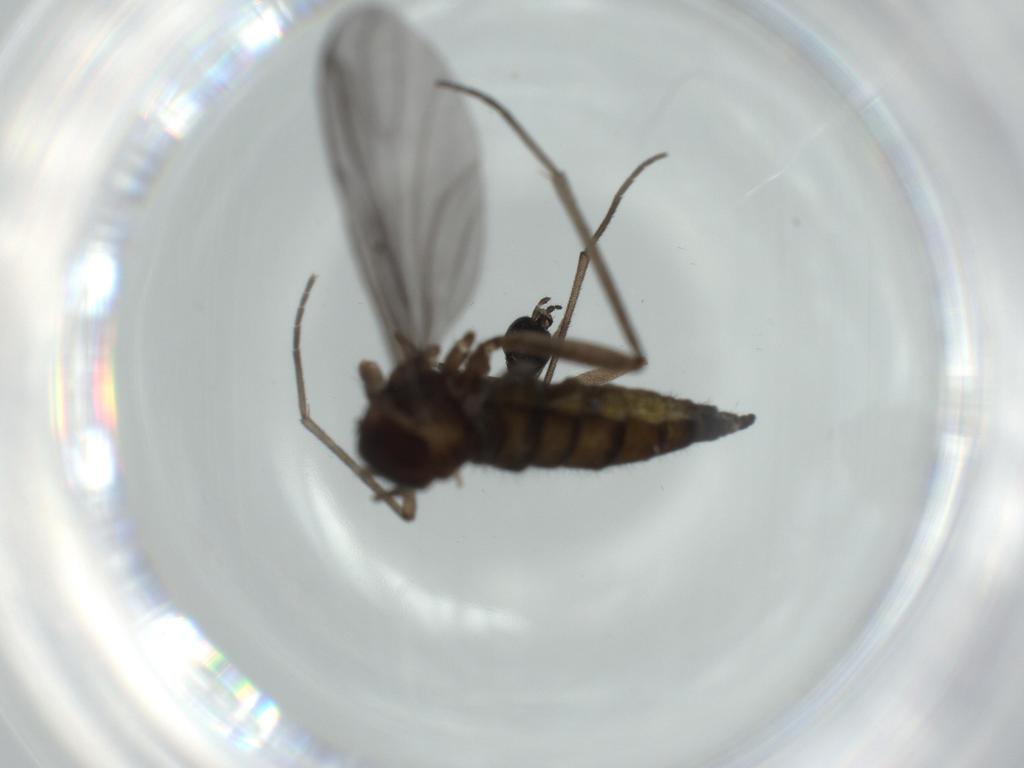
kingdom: Animalia
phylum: Arthropoda
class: Insecta
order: Diptera
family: Sciaridae
